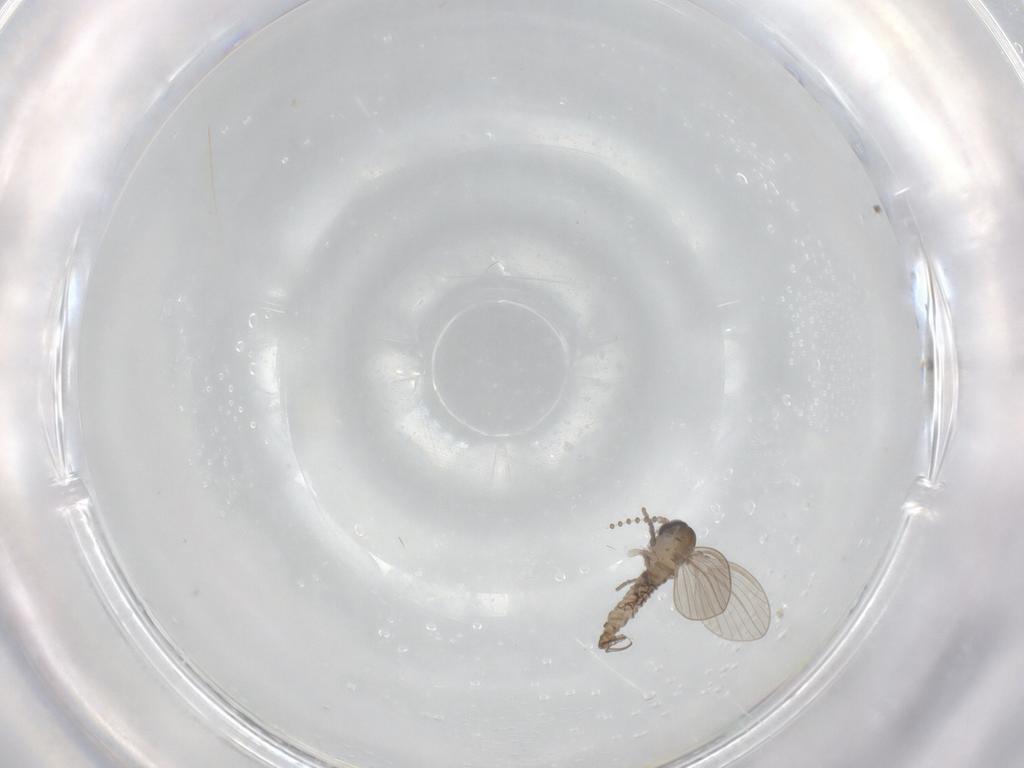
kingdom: Animalia
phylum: Arthropoda
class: Insecta
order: Diptera
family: Psychodidae
